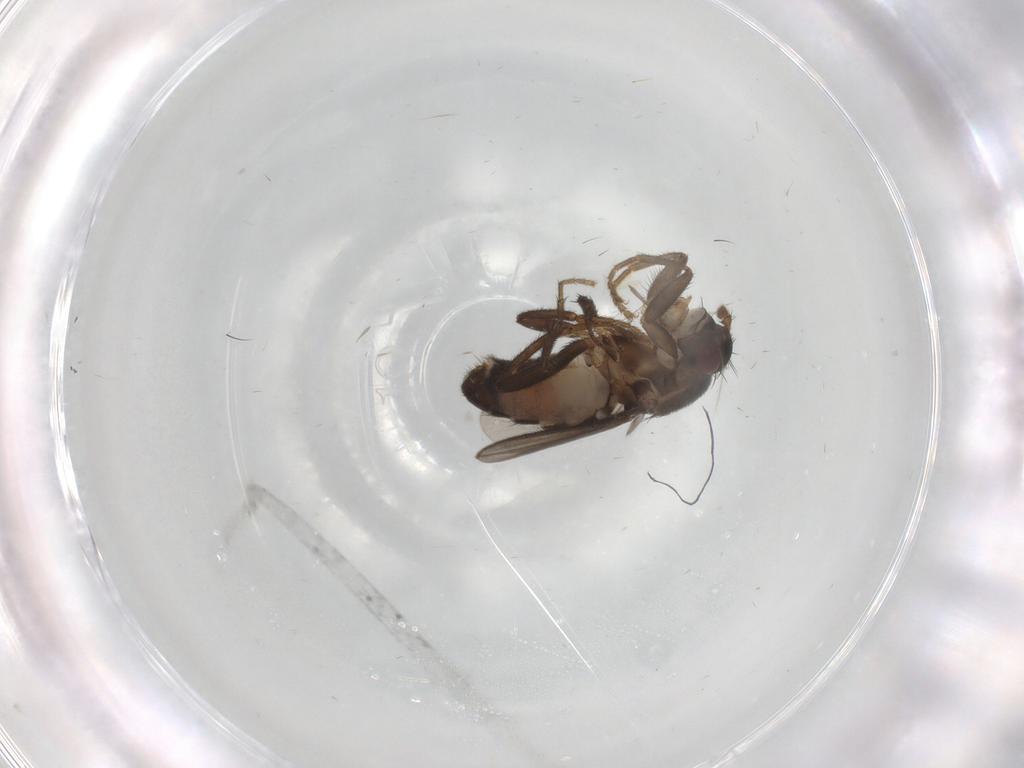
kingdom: Animalia
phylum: Arthropoda
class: Insecta
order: Diptera
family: Sphaeroceridae
